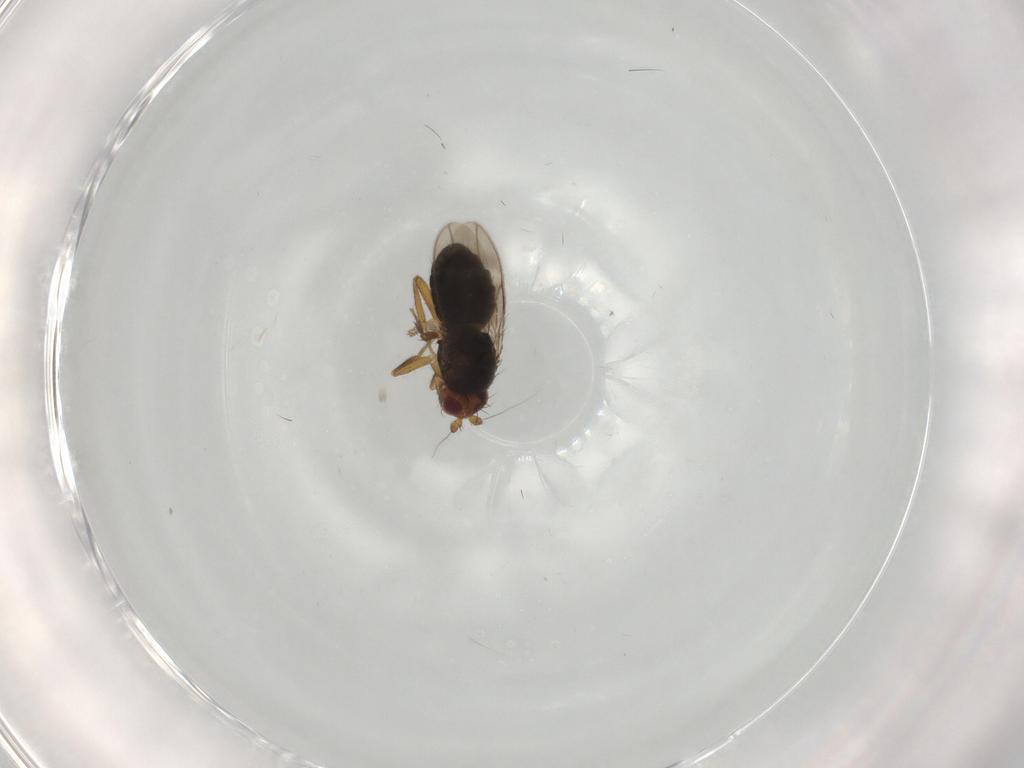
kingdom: Animalia
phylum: Arthropoda
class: Insecta
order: Diptera
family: Sphaeroceridae
